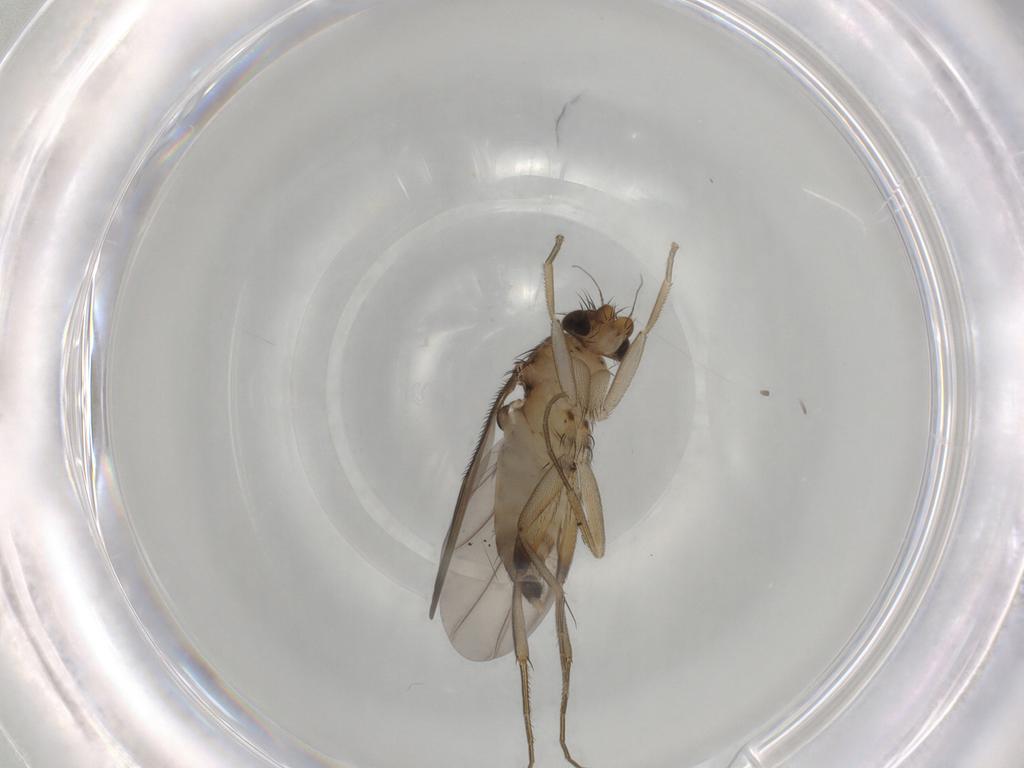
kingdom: Animalia
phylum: Arthropoda
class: Insecta
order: Diptera
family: Phoridae
